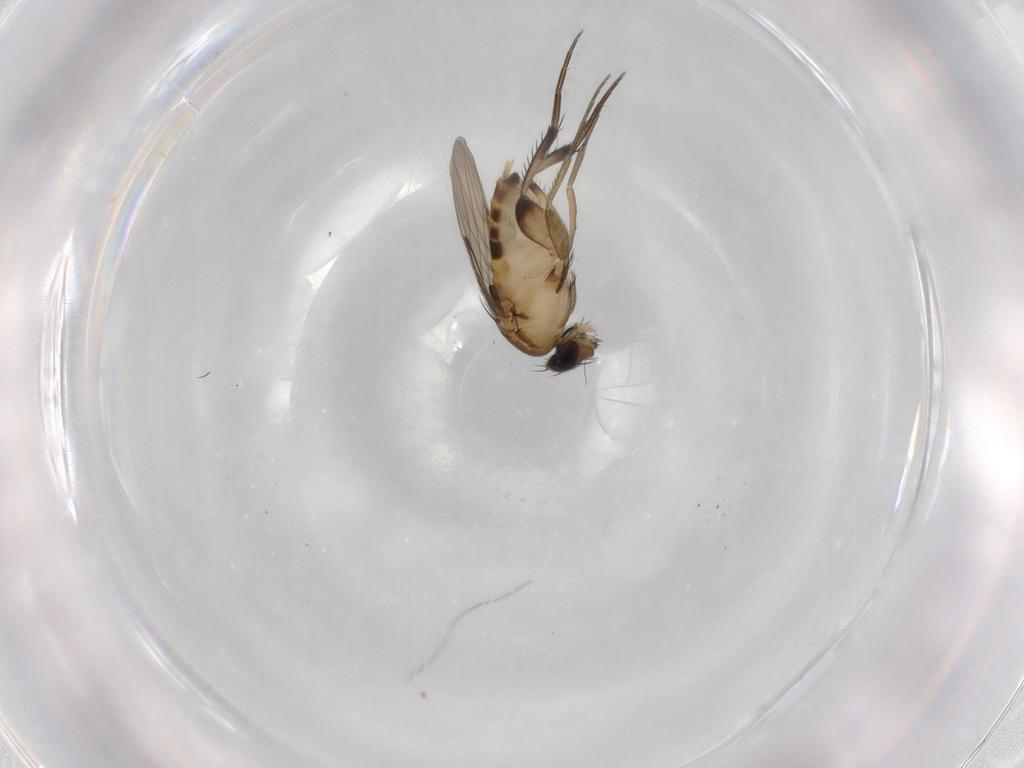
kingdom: Animalia
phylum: Arthropoda
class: Insecta
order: Diptera
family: Phoridae
